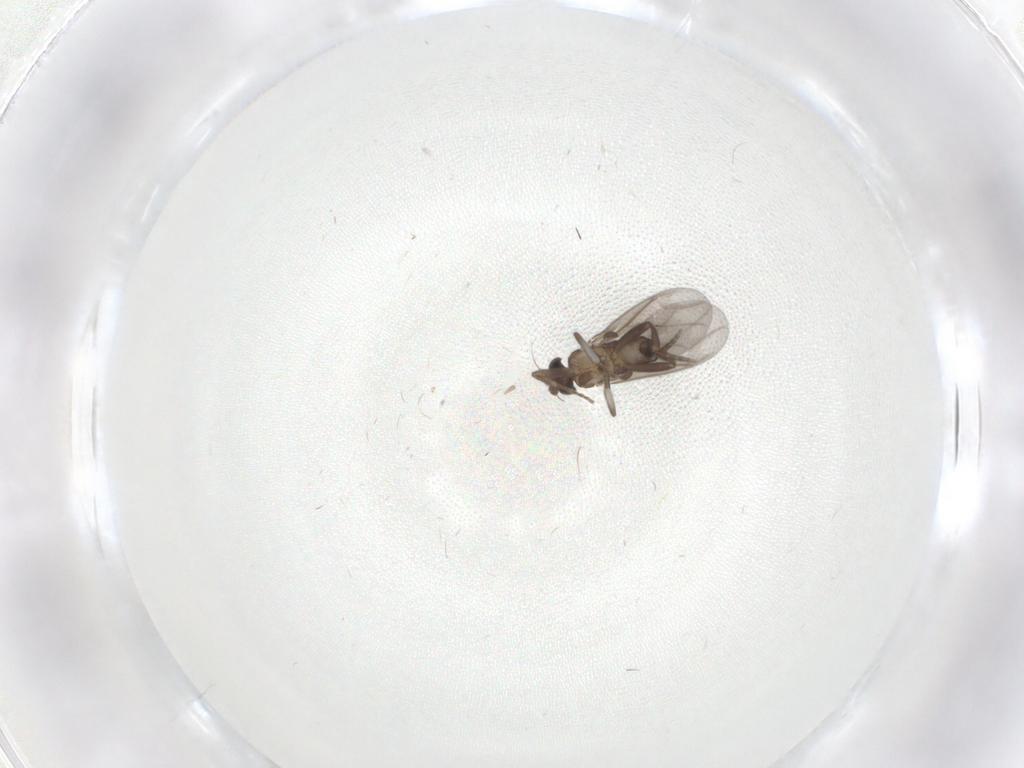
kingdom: Animalia
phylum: Arthropoda
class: Insecta
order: Diptera
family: Phoridae
